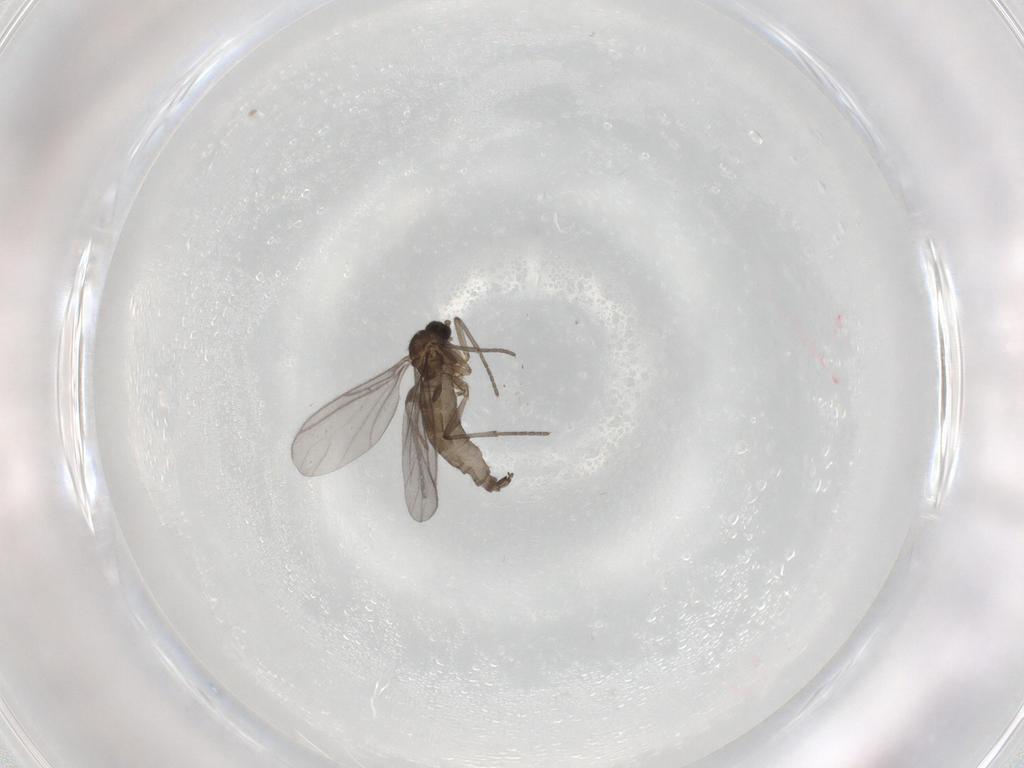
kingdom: Animalia
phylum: Arthropoda
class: Insecta
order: Diptera
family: Sciaridae
